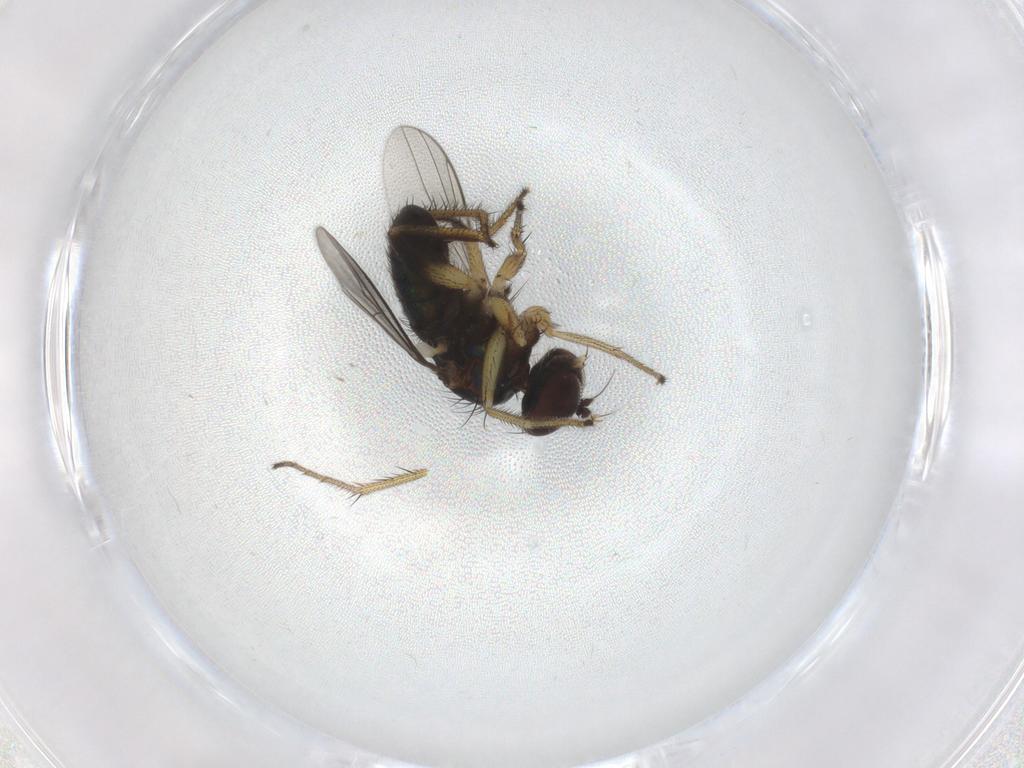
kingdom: Animalia
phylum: Arthropoda
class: Insecta
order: Diptera
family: Dolichopodidae
